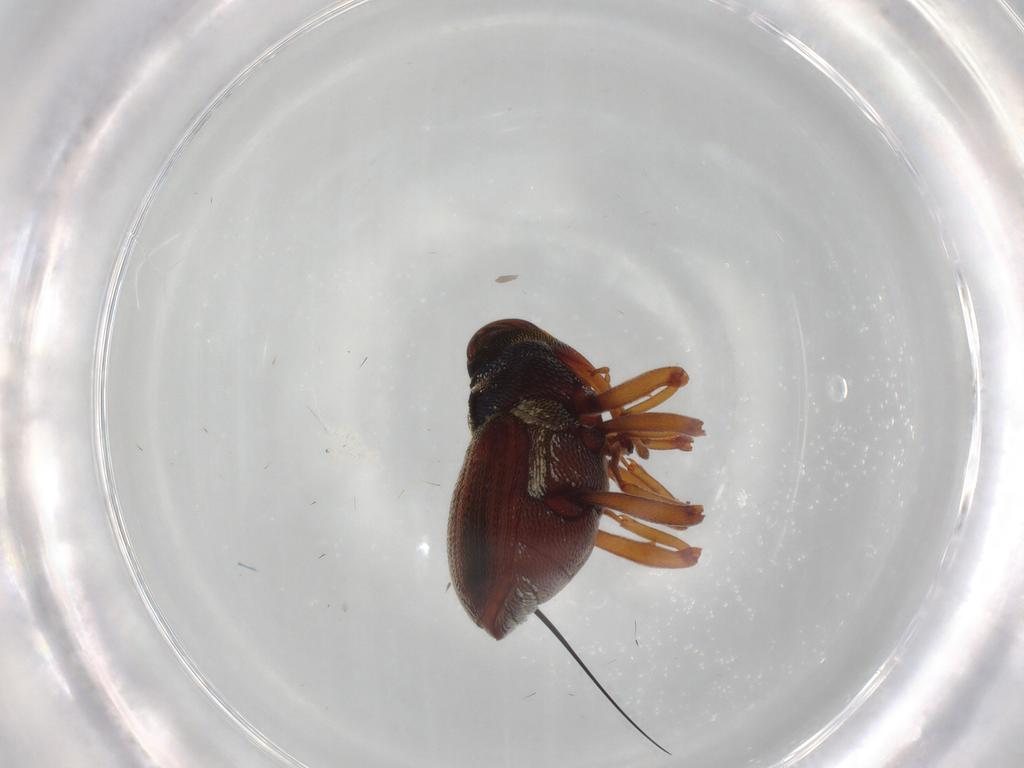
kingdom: Animalia
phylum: Arthropoda
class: Insecta
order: Coleoptera
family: Curculionidae
